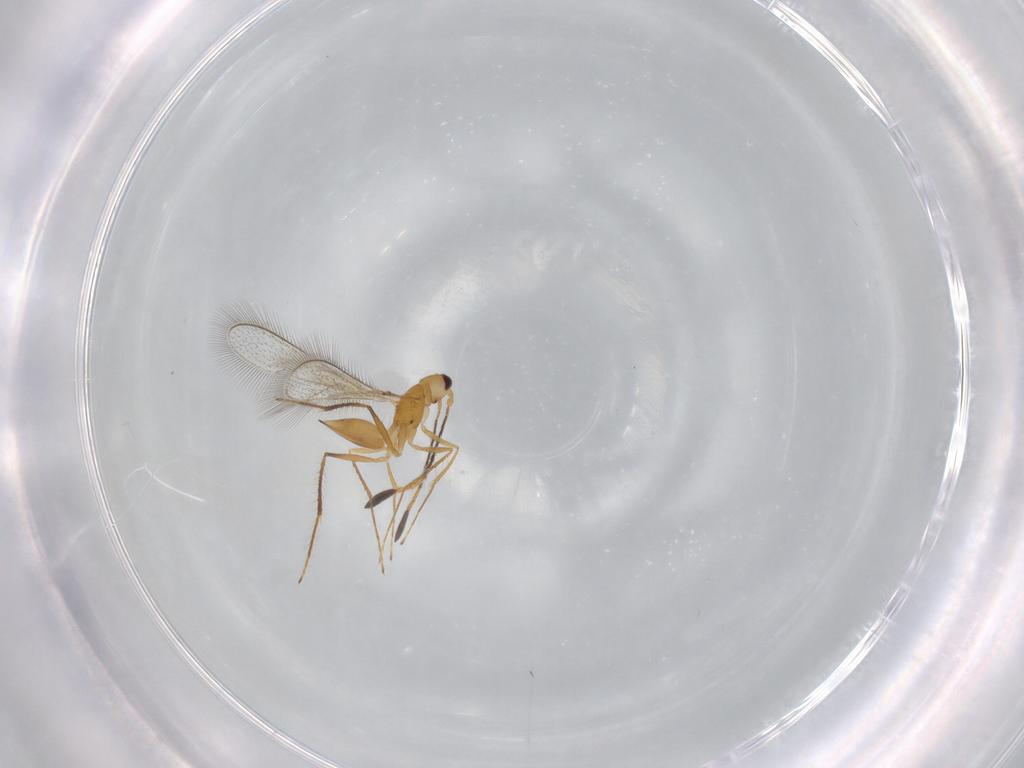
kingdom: Animalia
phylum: Arthropoda
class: Insecta
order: Hymenoptera
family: Mymaridae
